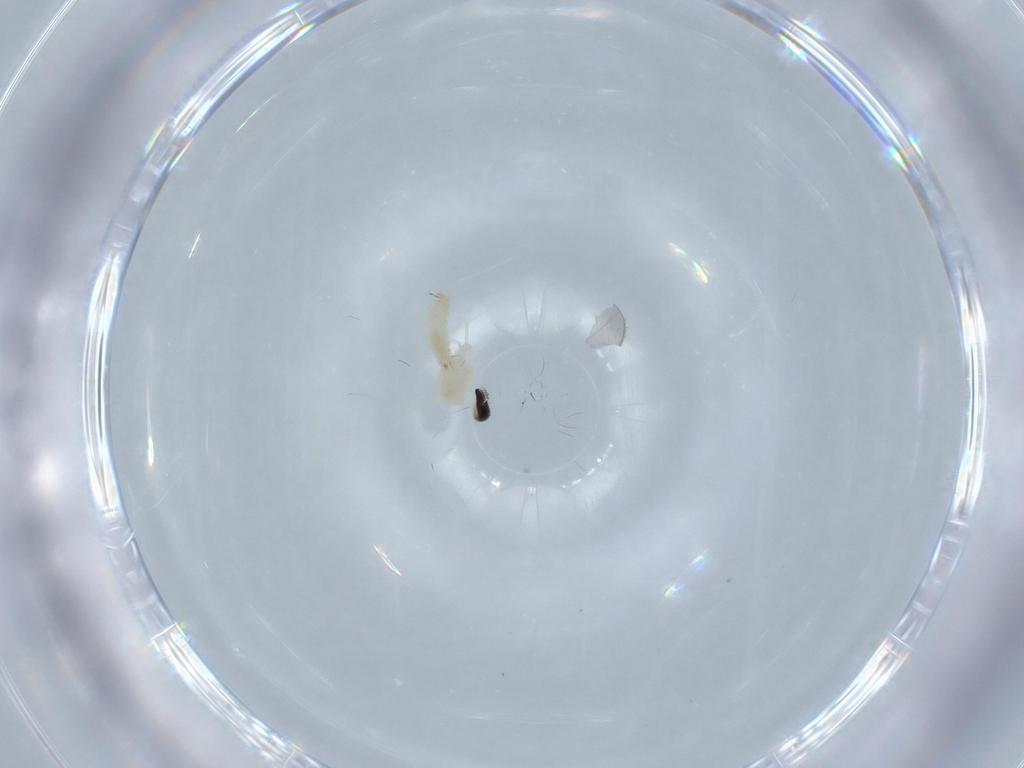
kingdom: Animalia
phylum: Arthropoda
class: Insecta
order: Diptera
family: Cecidomyiidae
